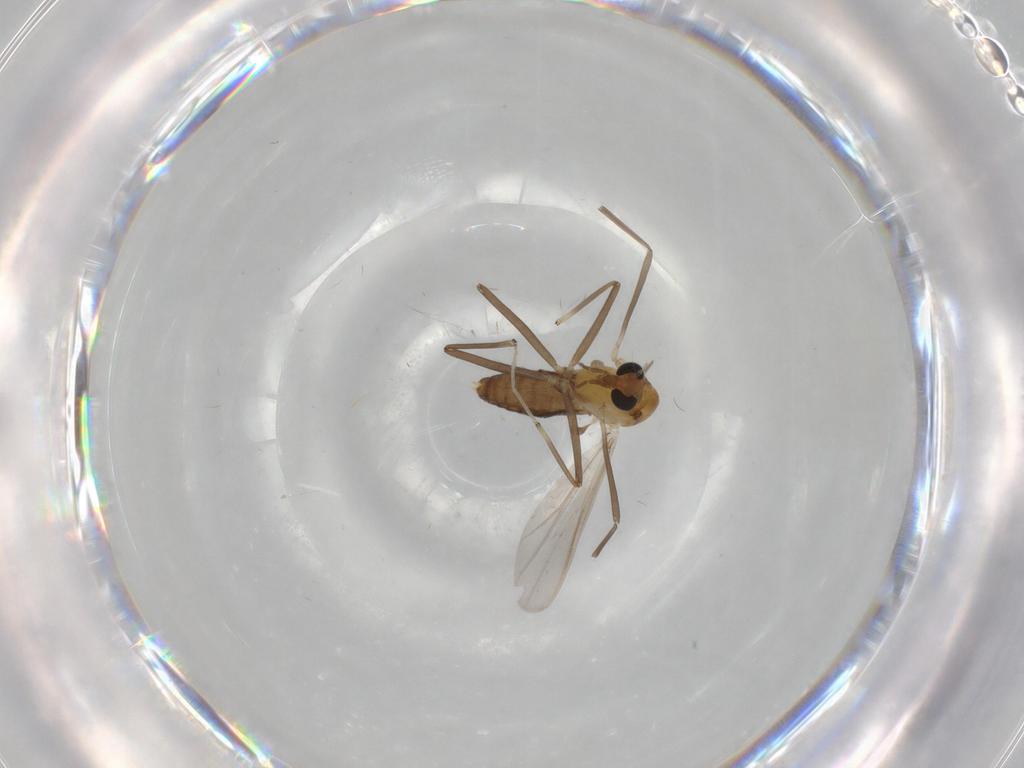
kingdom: Animalia
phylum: Arthropoda
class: Insecta
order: Diptera
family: Chironomidae
